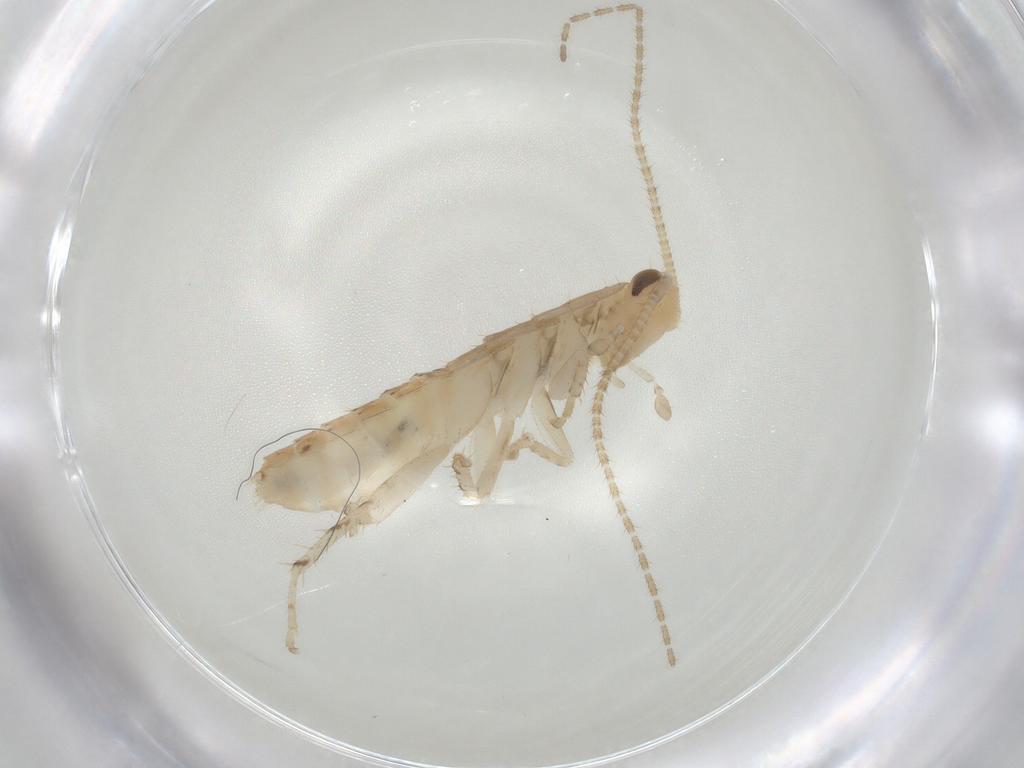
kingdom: Animalia
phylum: Arthropoda
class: Insecta
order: Blattodea
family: Ectobiidae
